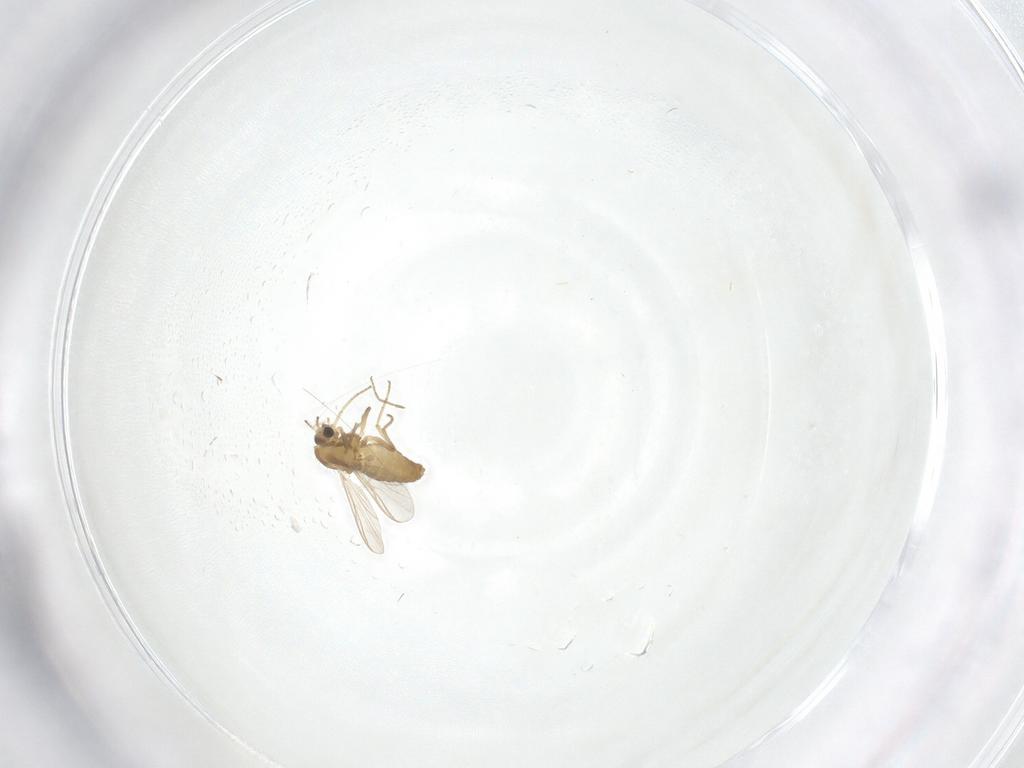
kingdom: Animalia
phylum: Arthropoda
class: Insecta
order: Diptera
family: Chironomidae
